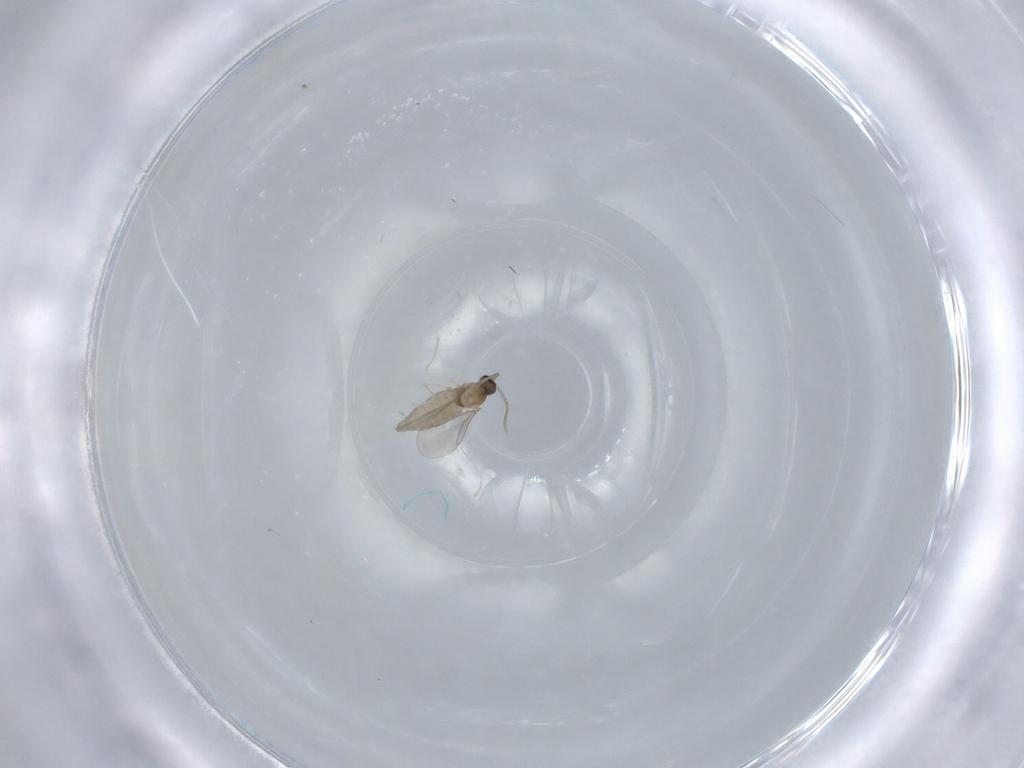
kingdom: Animalia
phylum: Arthropoda
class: Insecta
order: Diptera
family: Cecidomyiidae
